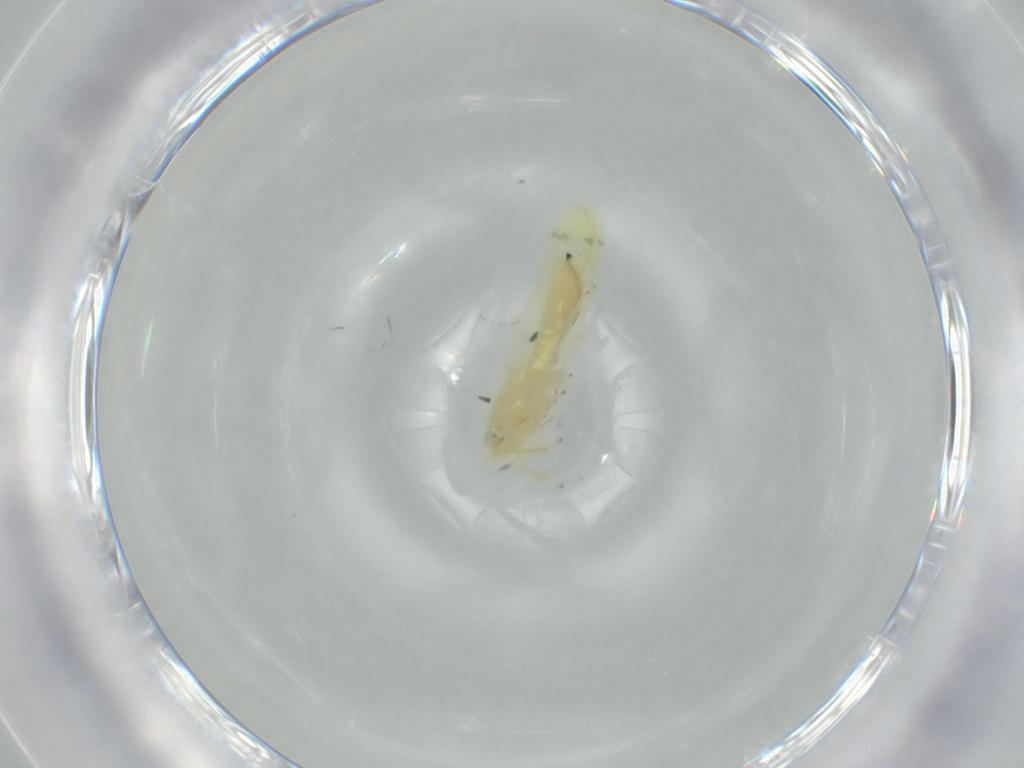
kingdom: Animalia
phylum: Arthropoda
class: Insecta
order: Hemiptera
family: Cicadellidae
